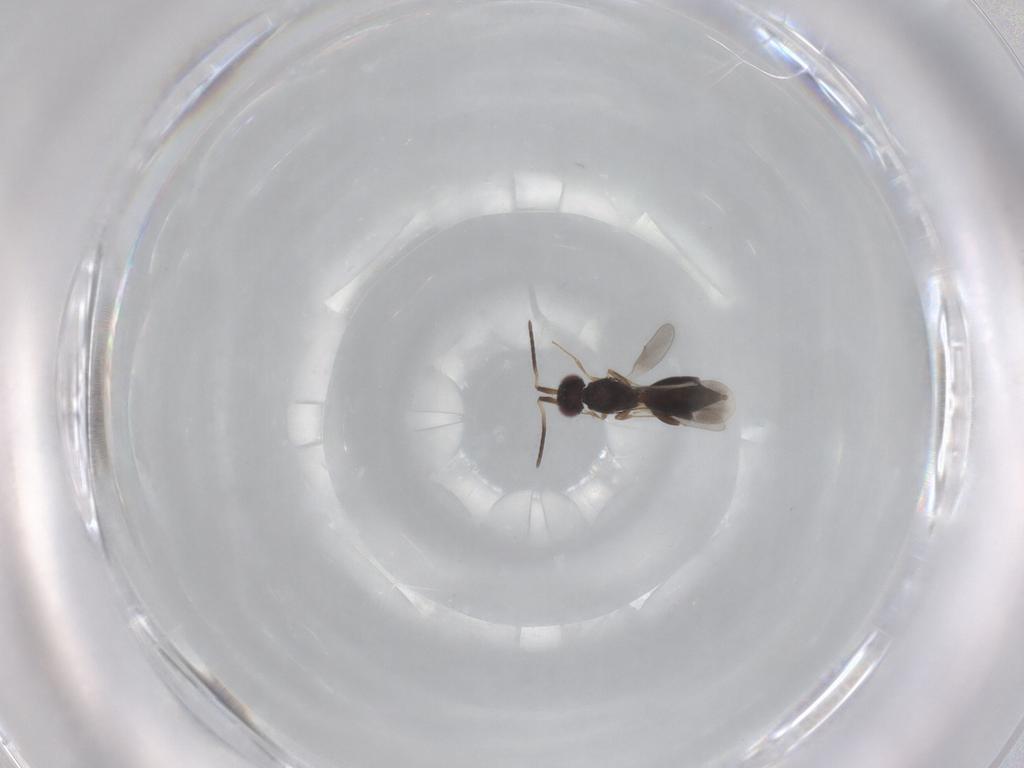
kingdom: Animalia
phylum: Arthropoda
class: Insecta
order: Hymenoptera
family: Megaspilidae
